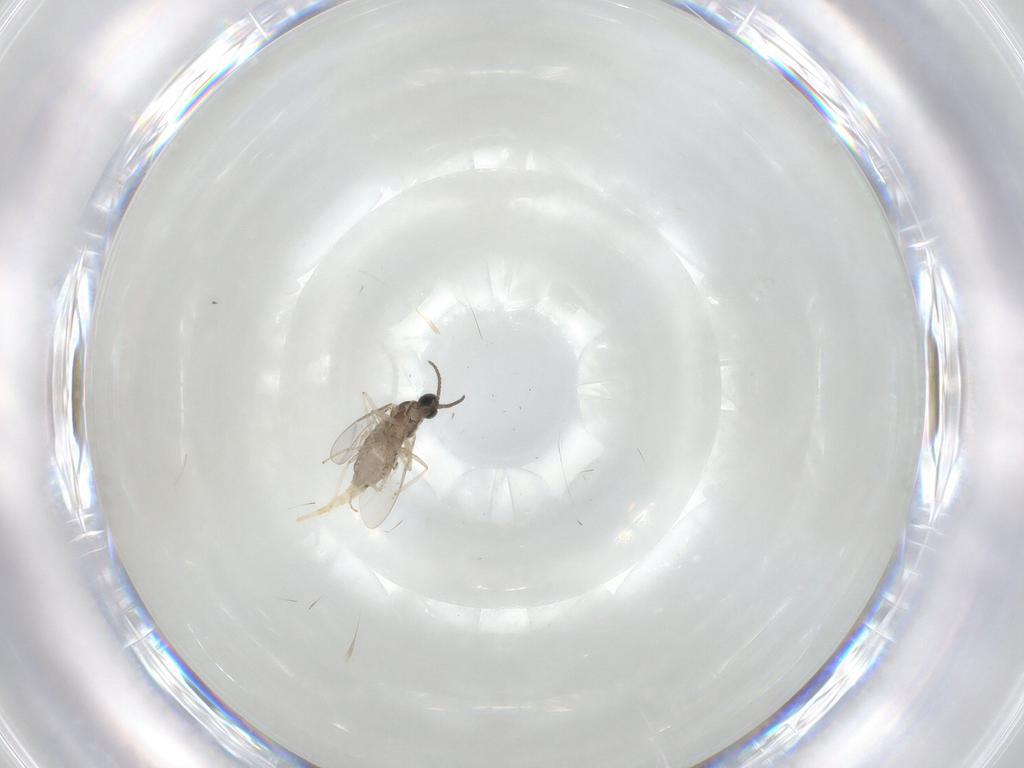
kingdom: Animalia
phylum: Arthropoda
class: Insecta
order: Diptera
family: Cecidomyiidae
